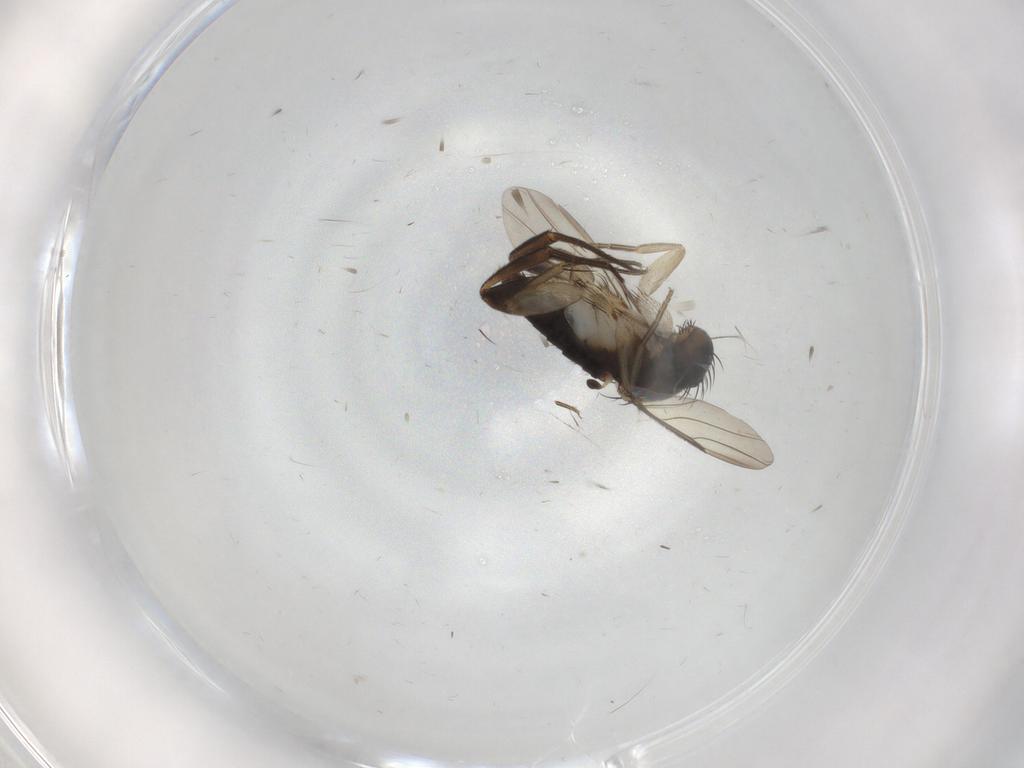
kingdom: Animalia
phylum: Arthropoda
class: Insecta
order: Diptera
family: Phoridae
